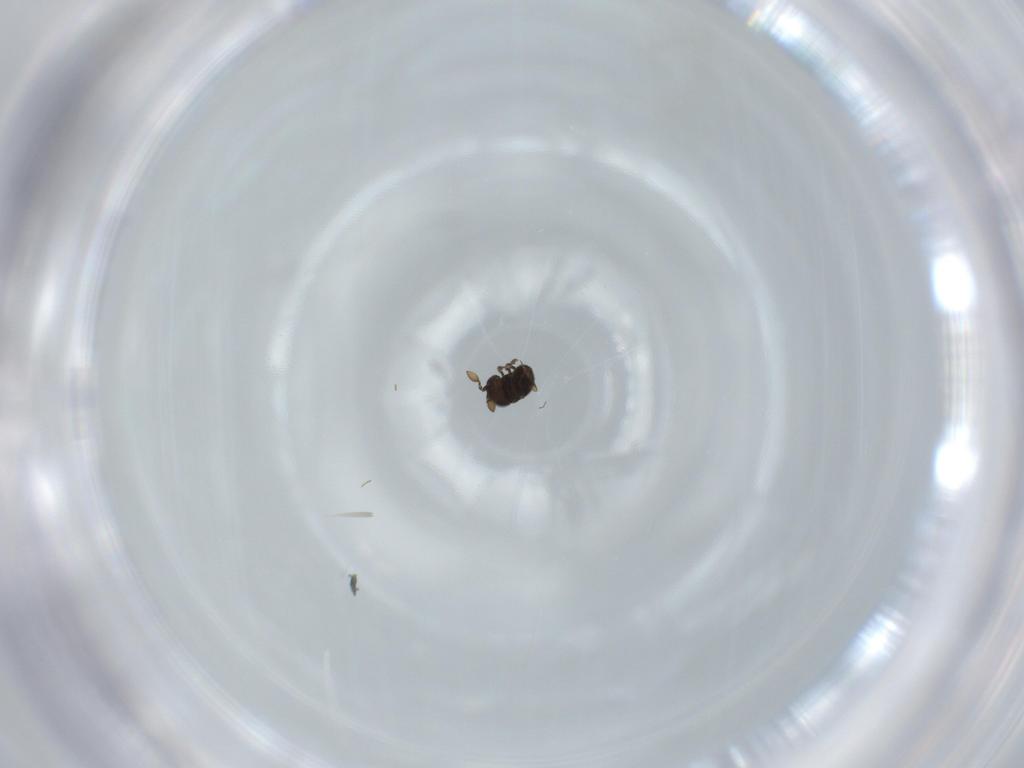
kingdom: Animalia
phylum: Arthropoda
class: Insecta
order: Hymenoptera
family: Scelionidae
